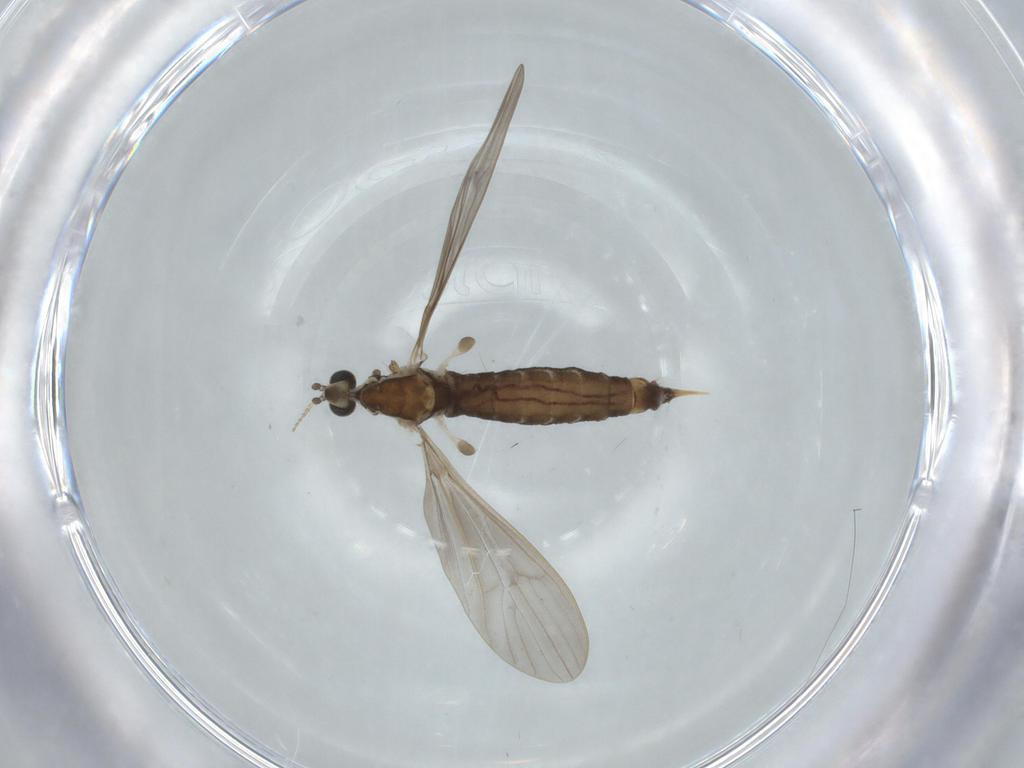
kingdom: Animalia
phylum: Arthropoda
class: Insecta
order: Diptera
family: Limoniidae
